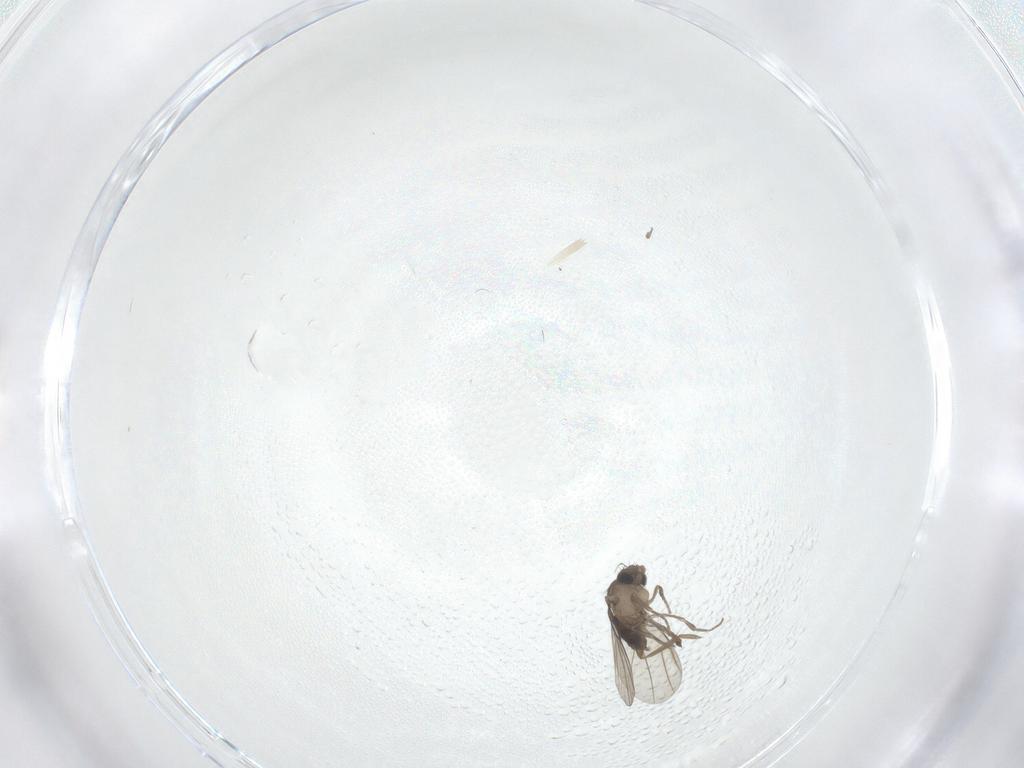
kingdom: Animalia
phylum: Arthropoda
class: Insecta
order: Diptera
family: Phoridae
